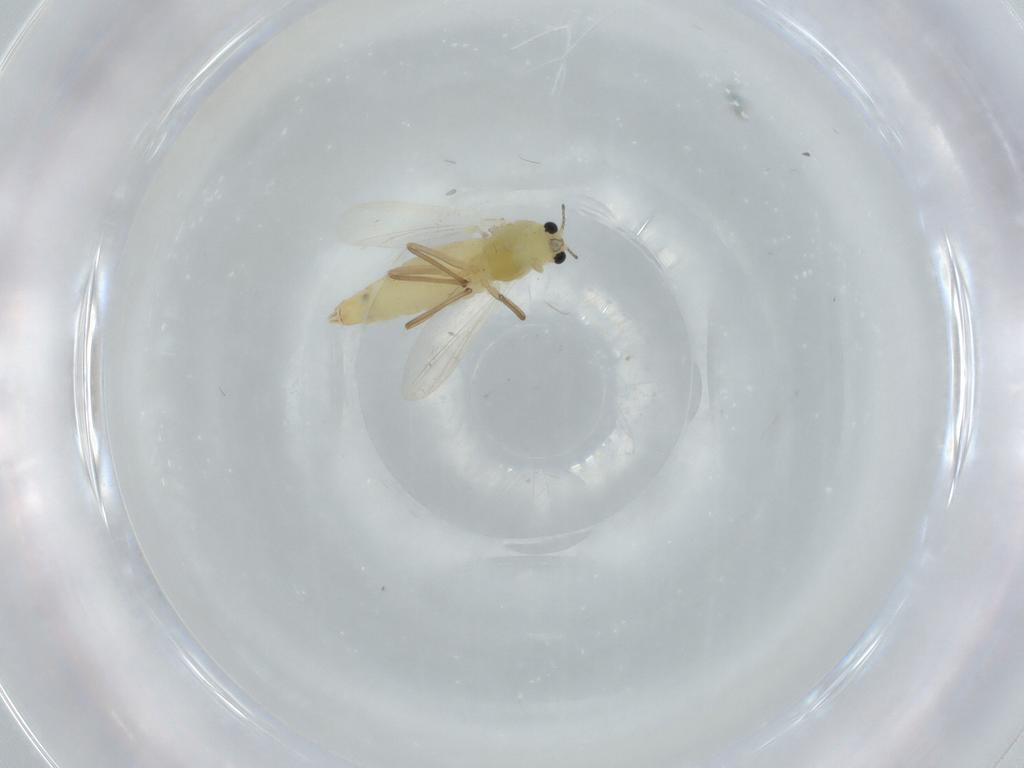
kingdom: Animalia
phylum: Arthropoda
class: Insecta
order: Diptera
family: Chironomidae
